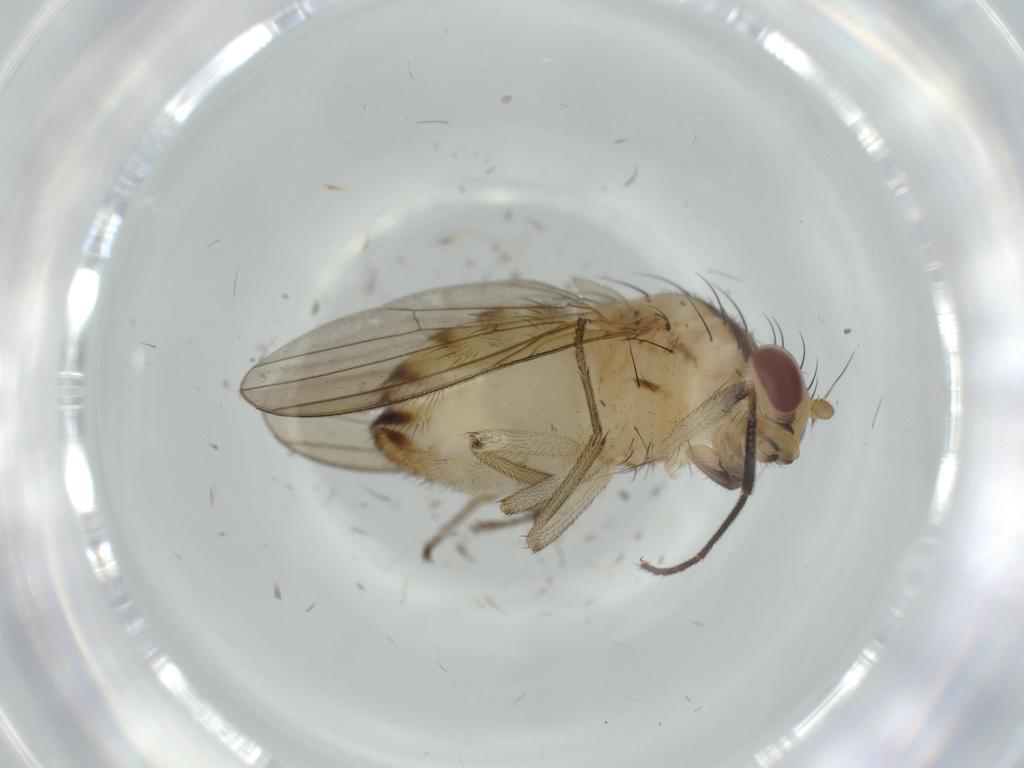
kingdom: Animalia
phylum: Arthropoda
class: Insecta
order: Diptera
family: Lauxaniidae
